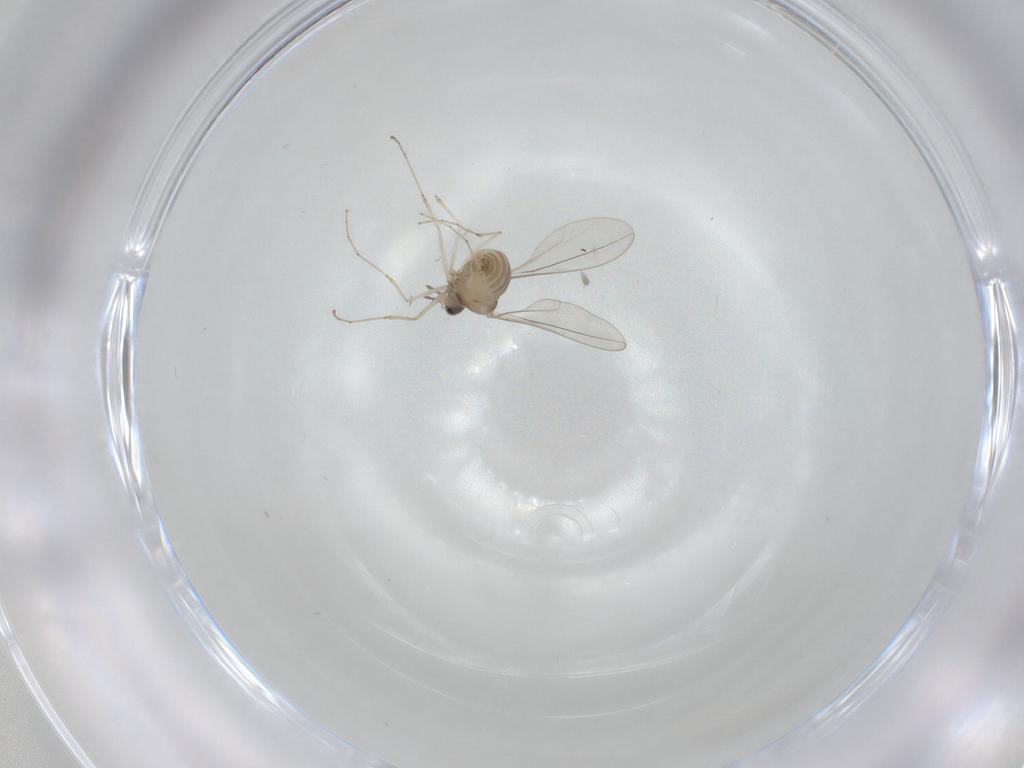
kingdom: Animalia
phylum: Arthropoda
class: Insecta
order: Diptera
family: Cecidomyiidae
